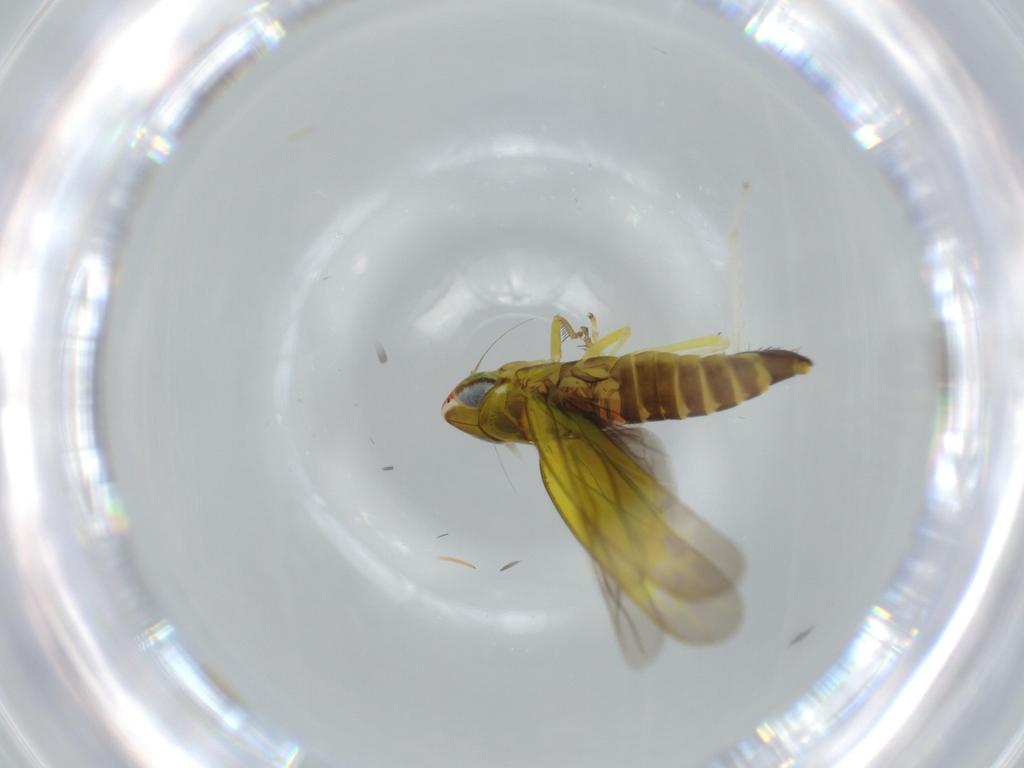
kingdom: Animalia
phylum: Arthropoda
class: Insecta
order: Hemiptera
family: Cicadellidae
